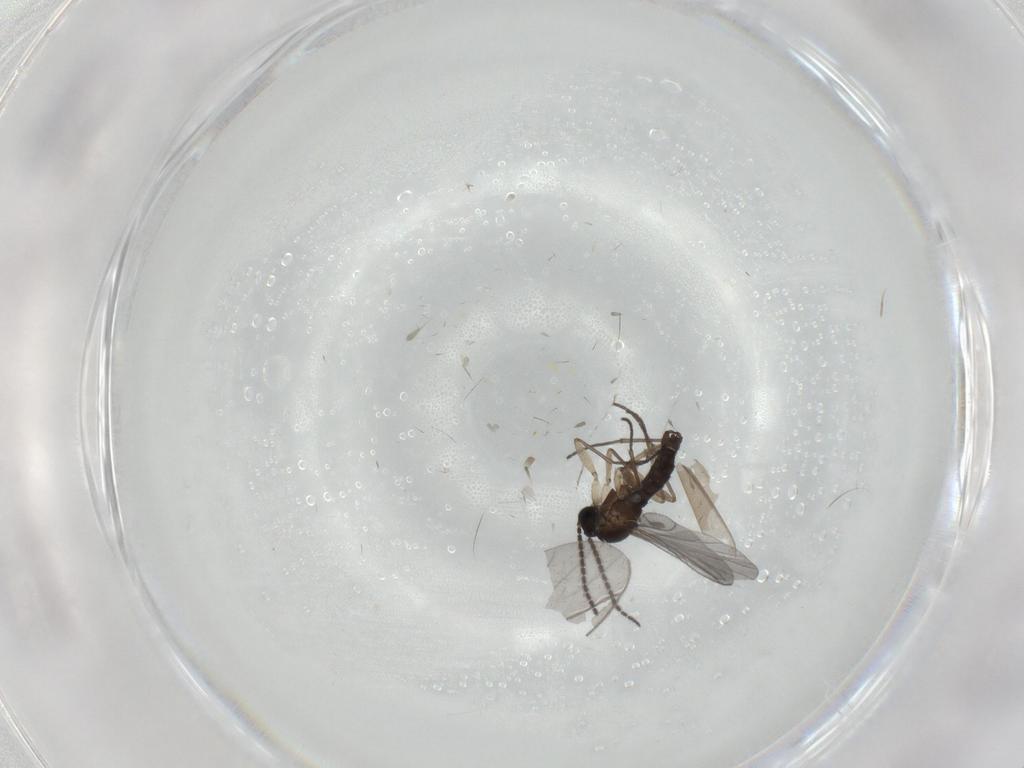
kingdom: Animalia
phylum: Arthropoda
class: Insecta
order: Diptera
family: Sciaridae
